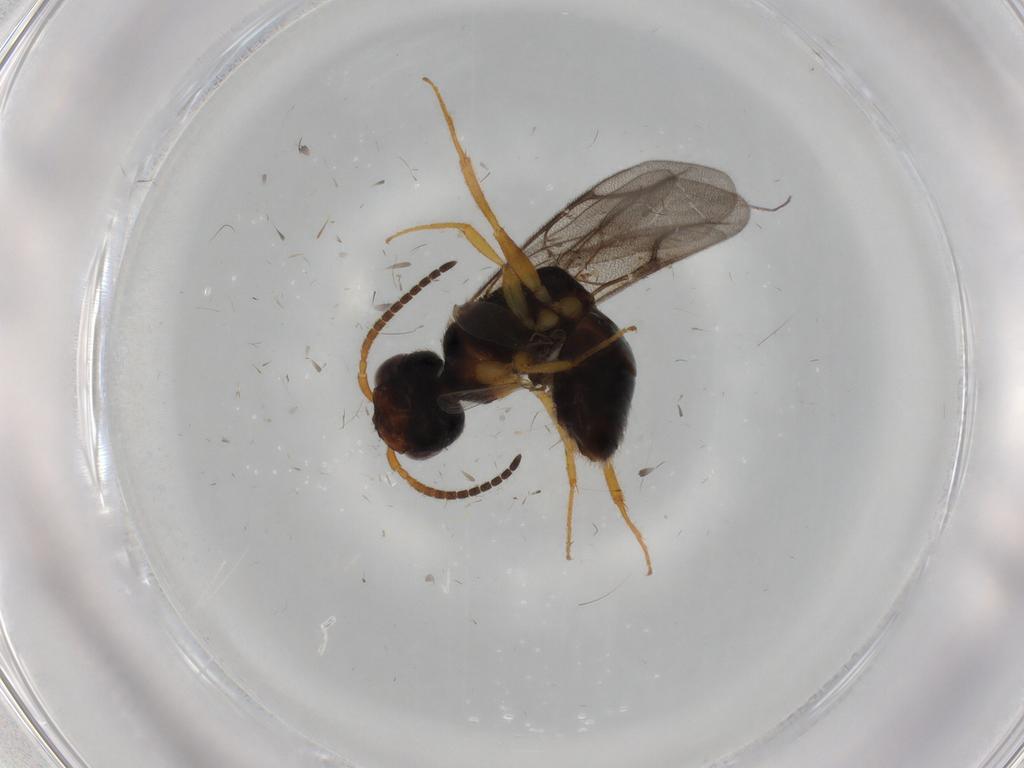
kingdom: Animalia
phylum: Arthropoda
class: Insecta
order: Hymenoptera
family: Bethylidae
